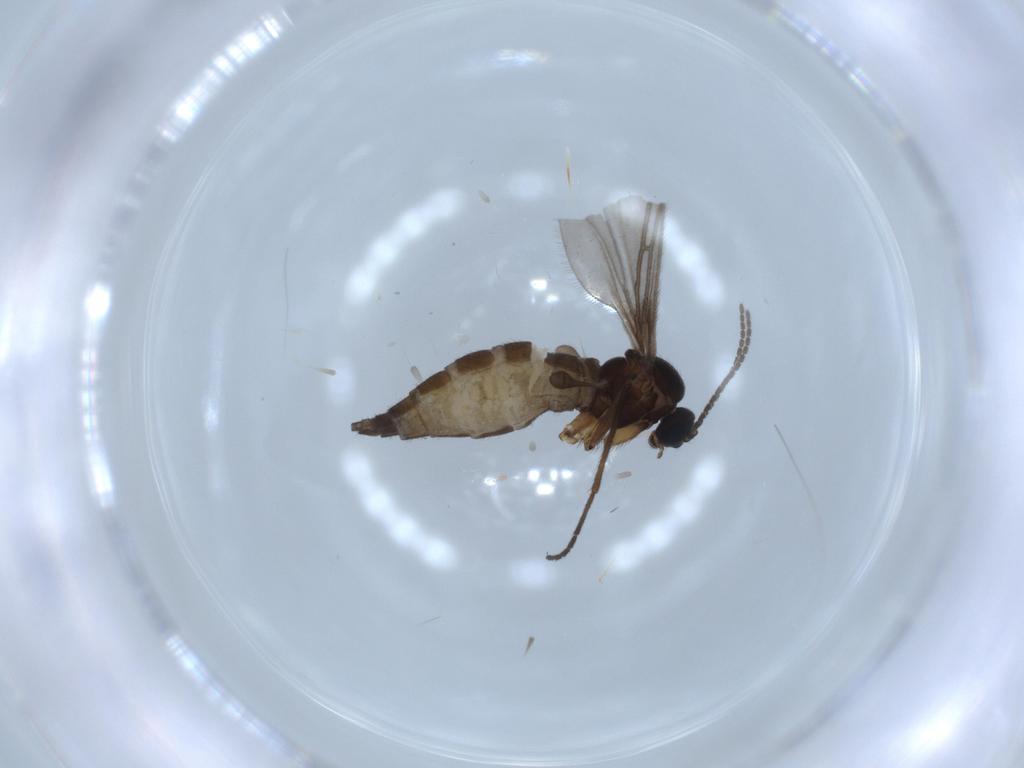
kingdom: Animalia
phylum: Arthropoda
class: Insecta
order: Diptera
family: Sciaridae
